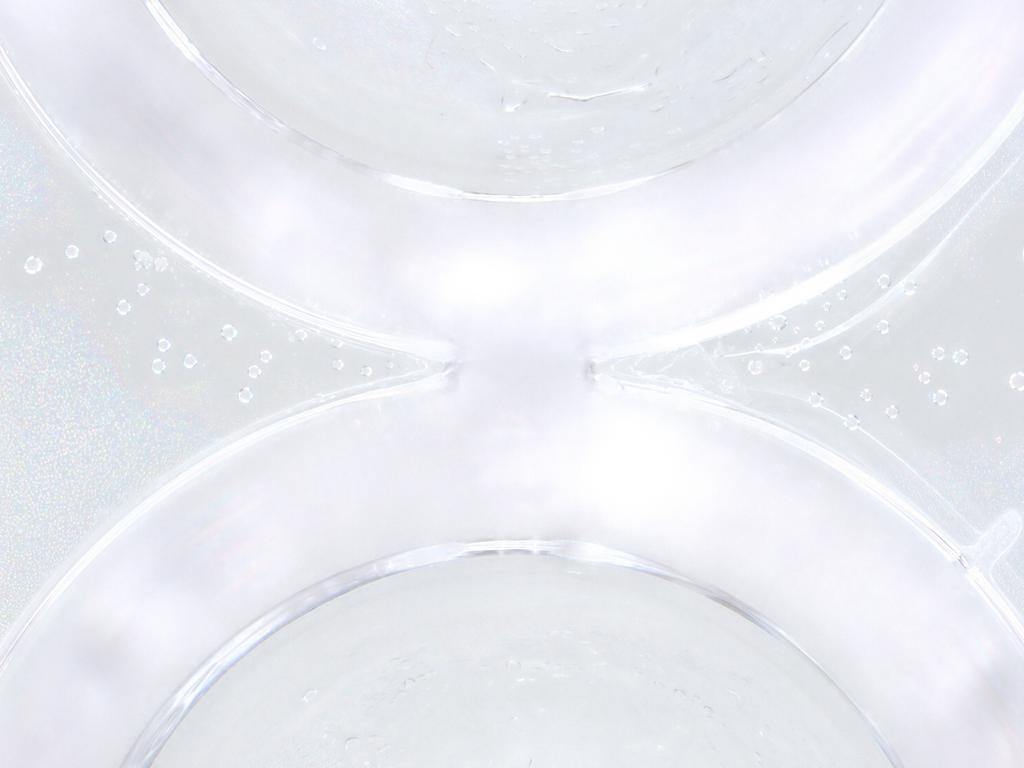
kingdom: Animalia
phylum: Arthropoda
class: Insecta
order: Diptera
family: Psychodidae
